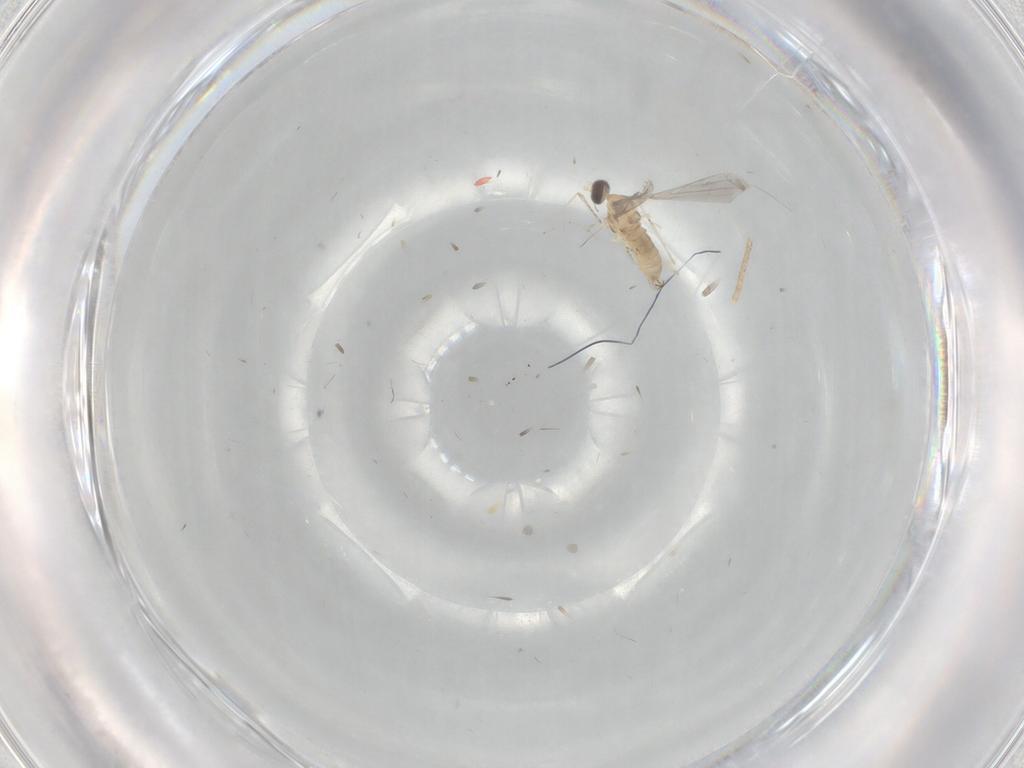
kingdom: Animalia
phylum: Arthropoda
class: Insecta
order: Diptera
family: Cecidomyiidae
